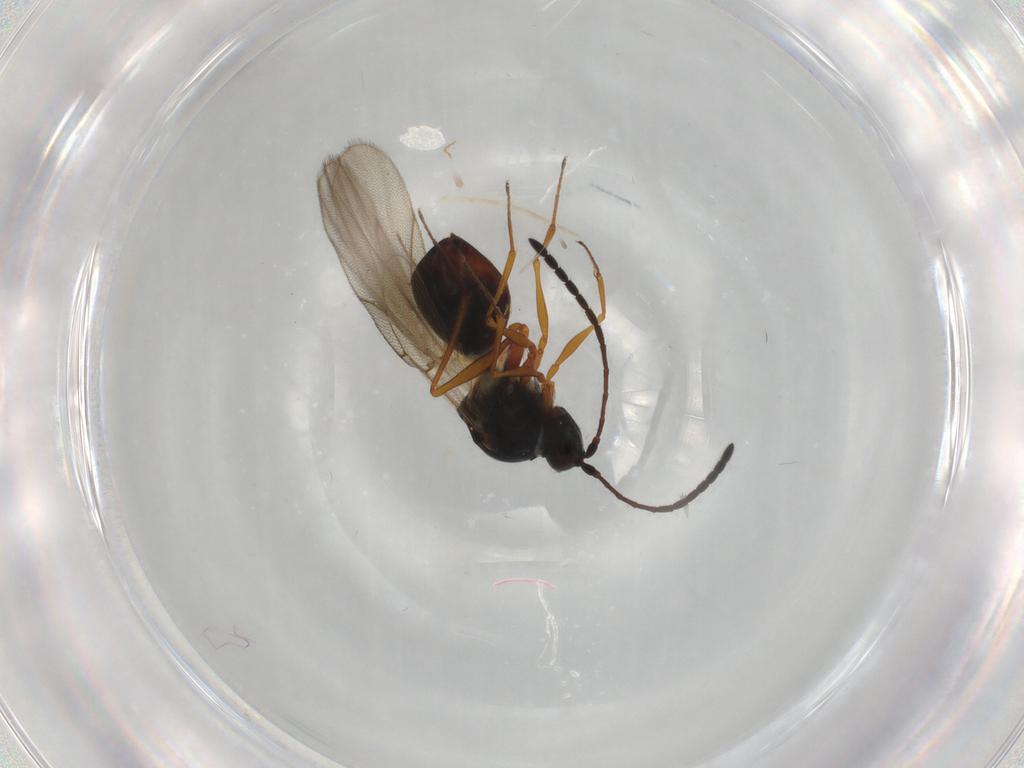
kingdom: Animalia
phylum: Arthropoda
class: Insecta
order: Hymenoptera
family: Figitidae
